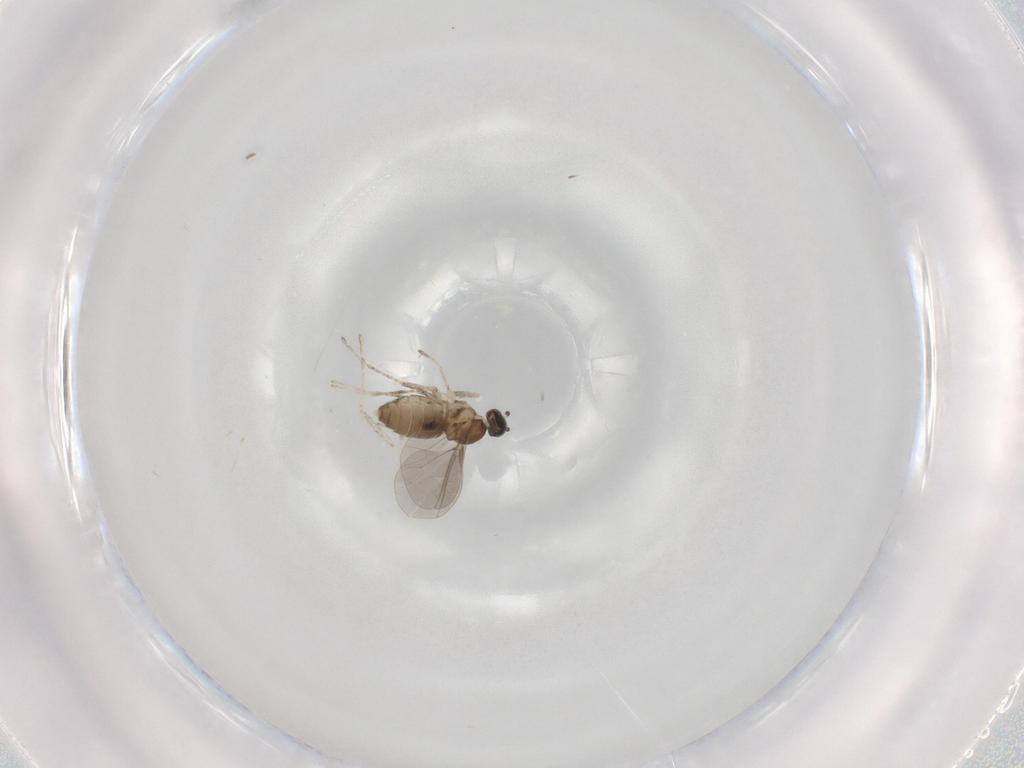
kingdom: Animalia
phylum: Arthropoda
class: Insecta
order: Diptera
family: Cecidomyiidae
